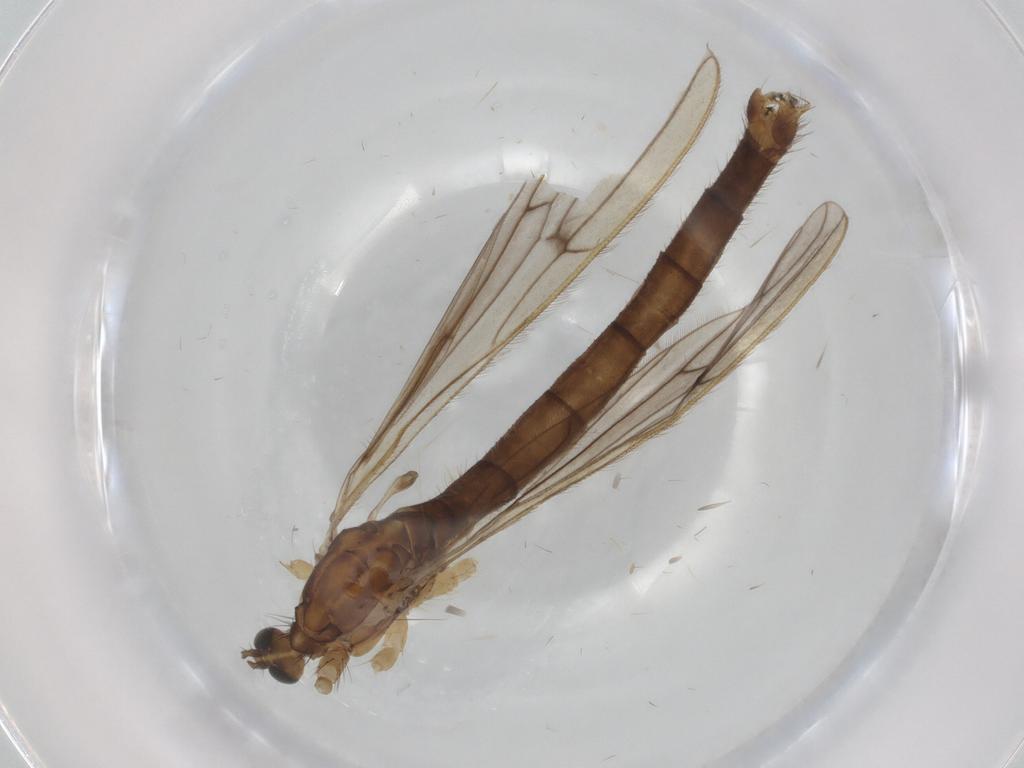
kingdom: Animalia
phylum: Arthropoda
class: Insecta
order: Diptera
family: Limoniidae
